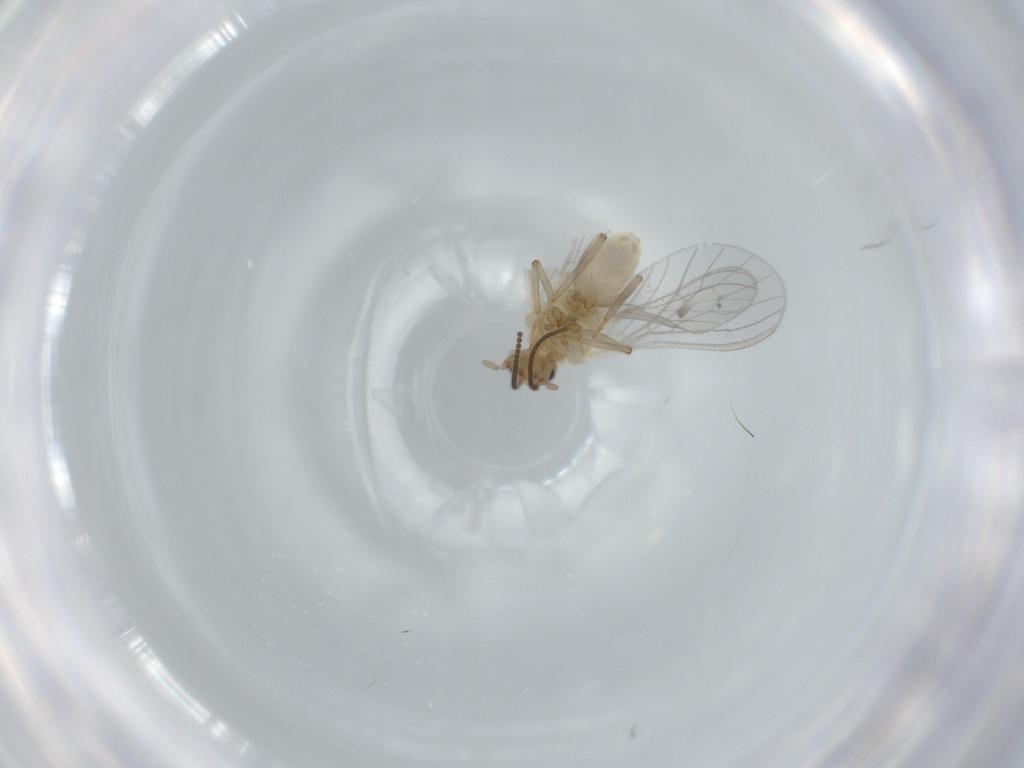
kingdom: Animalia
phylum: Arthropoda
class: Insecta
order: Neuroptera
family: Coniopterygidae
